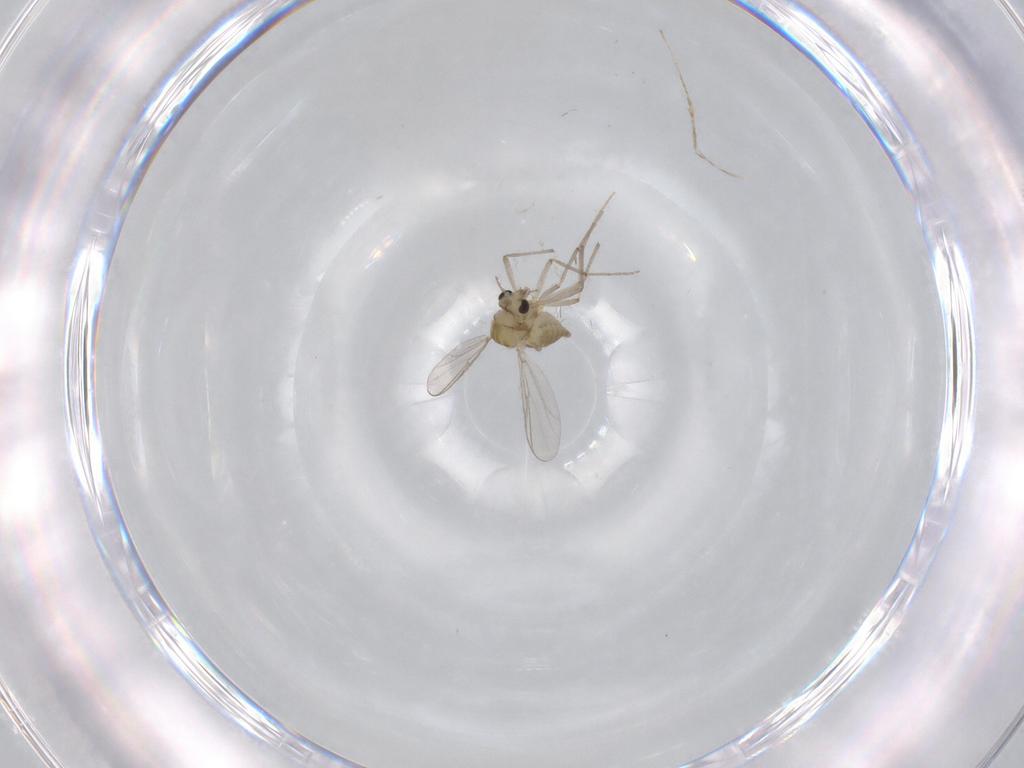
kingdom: Animalia
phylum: Arthropoda
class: Insecta
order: Diptera
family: Chironomidae
